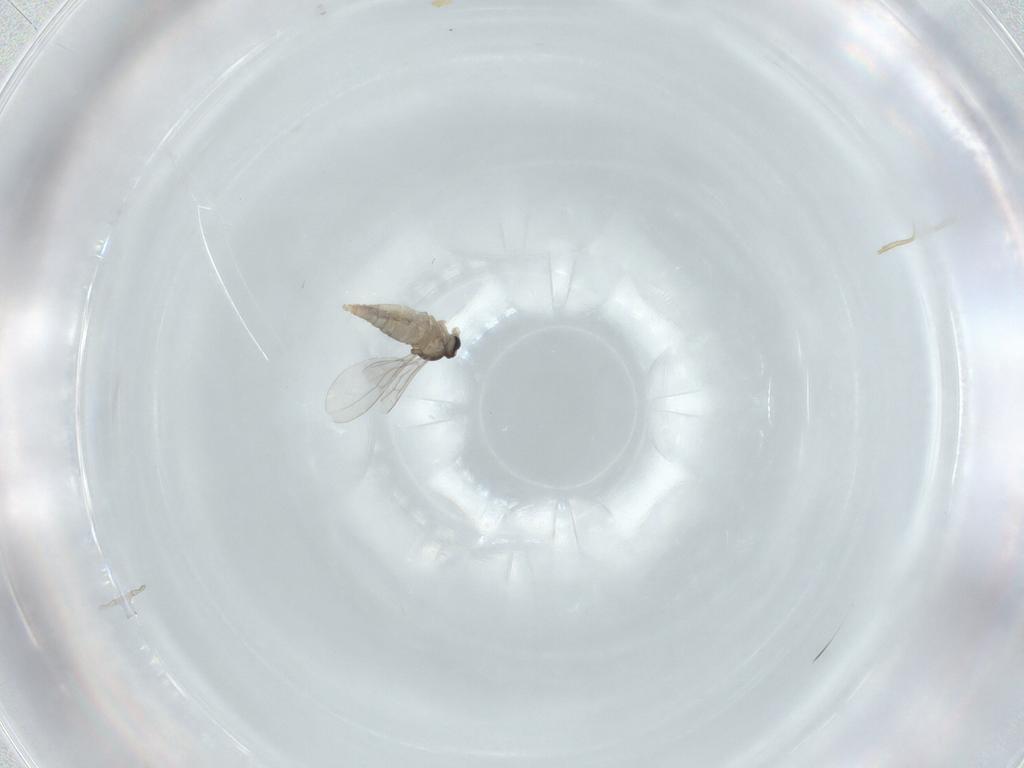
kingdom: Animalia
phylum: Arthropoda
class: Insecta
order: Diptera
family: Cecidomyiidae
